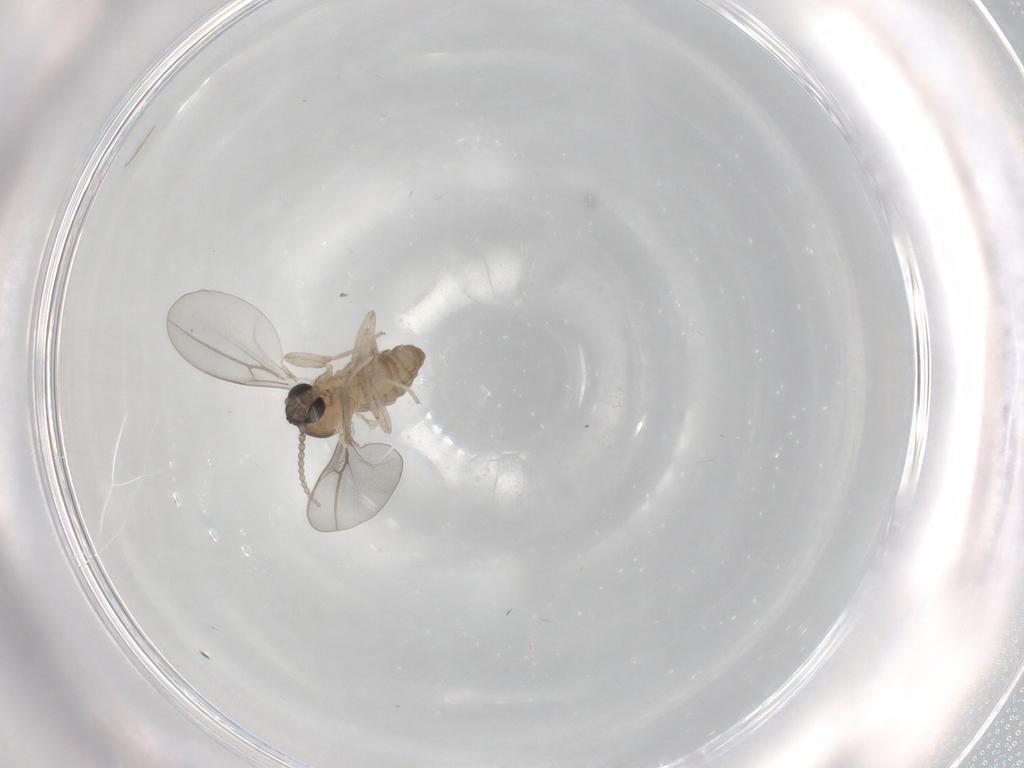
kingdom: Animalia
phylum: Arthropoda
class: Insecta
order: Diptera
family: Cecidomyiidae
